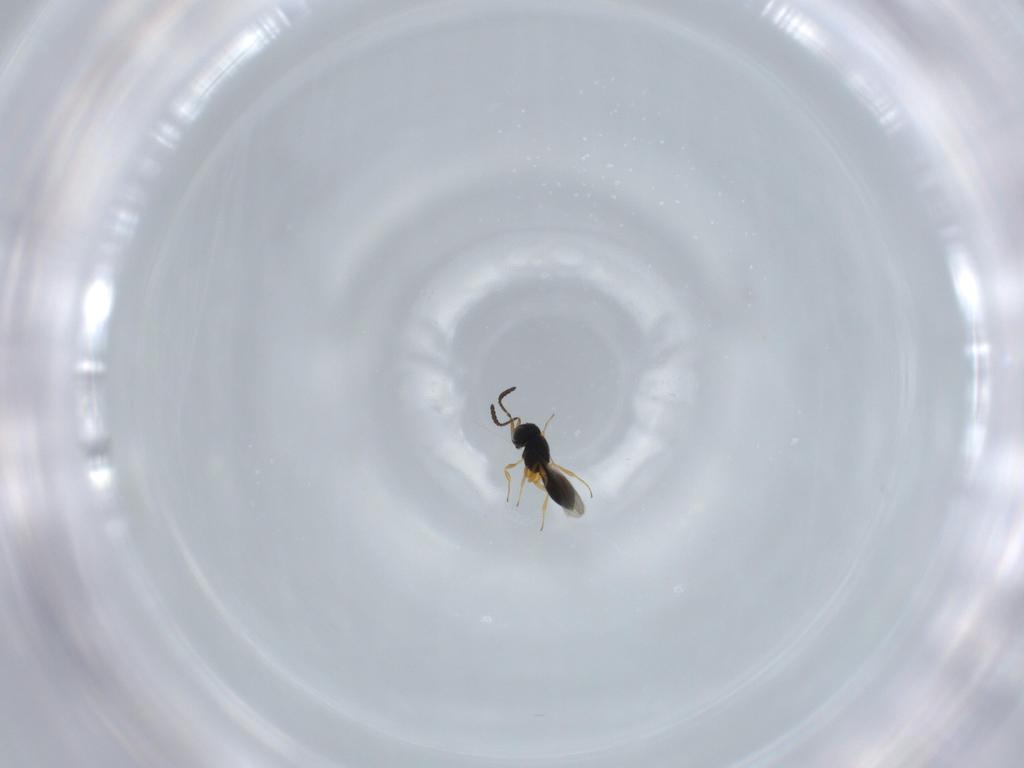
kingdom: Animalia
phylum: Arthropoda
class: Insecta
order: Hymenoptera
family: Scelionidae
